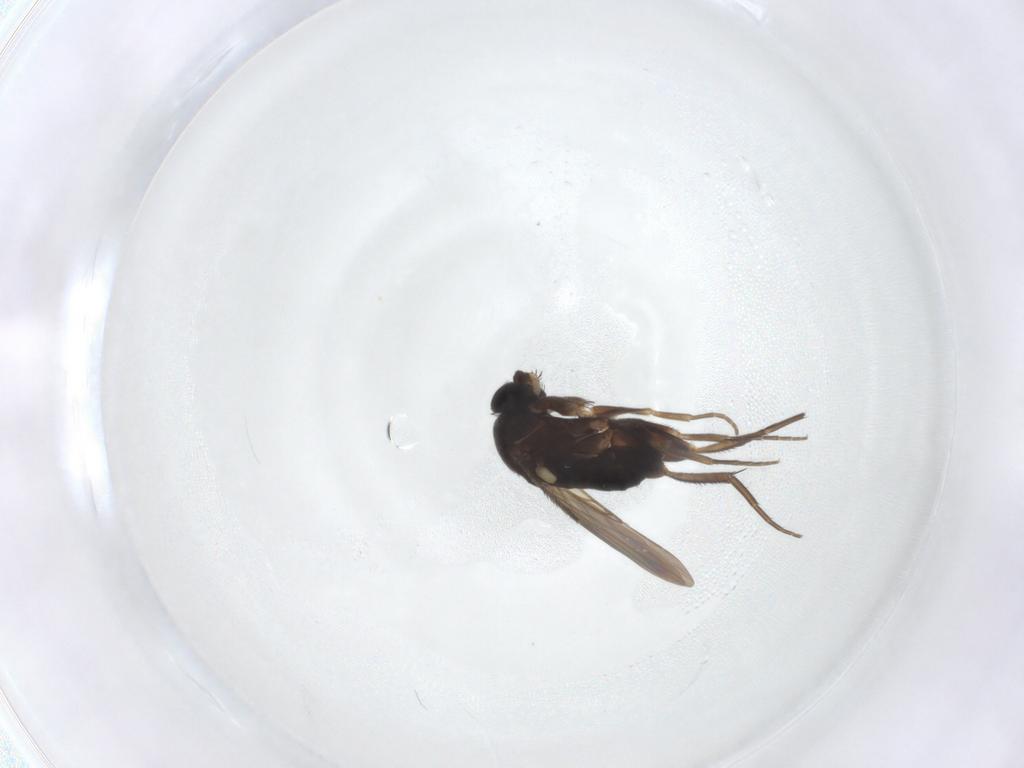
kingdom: Animalia
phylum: Arthropoda
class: Insecta
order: Diptera
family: Phoridae
